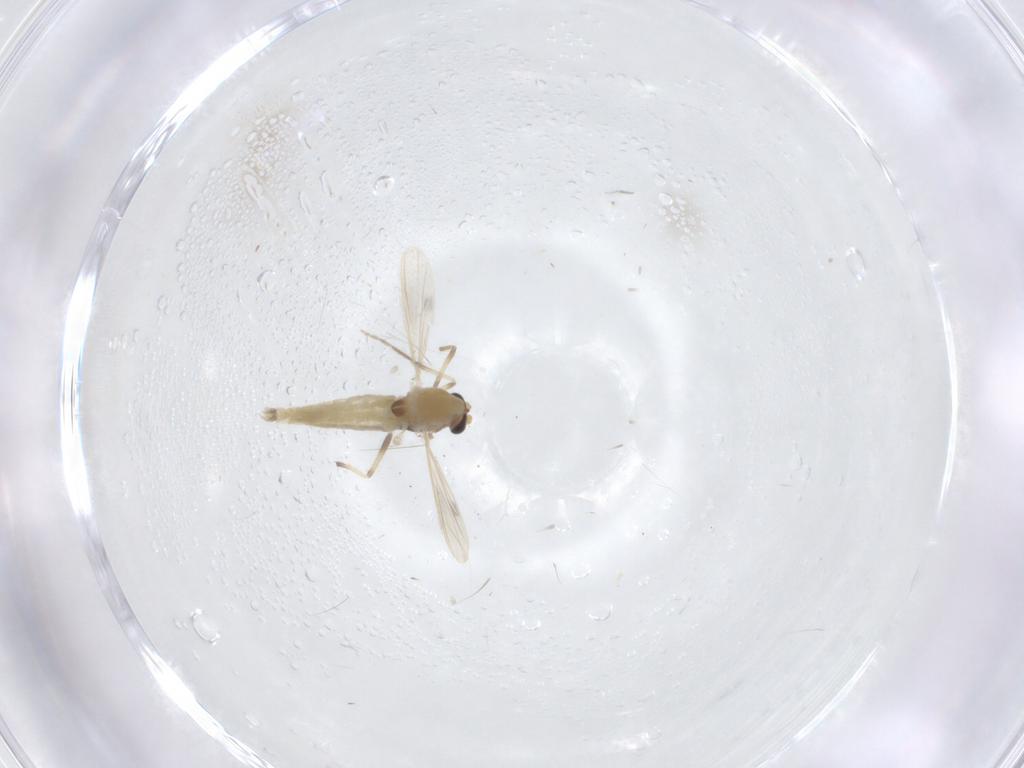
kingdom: Animalia
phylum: Arthropoda
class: Insecta
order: Diptera
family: Chironomidae
